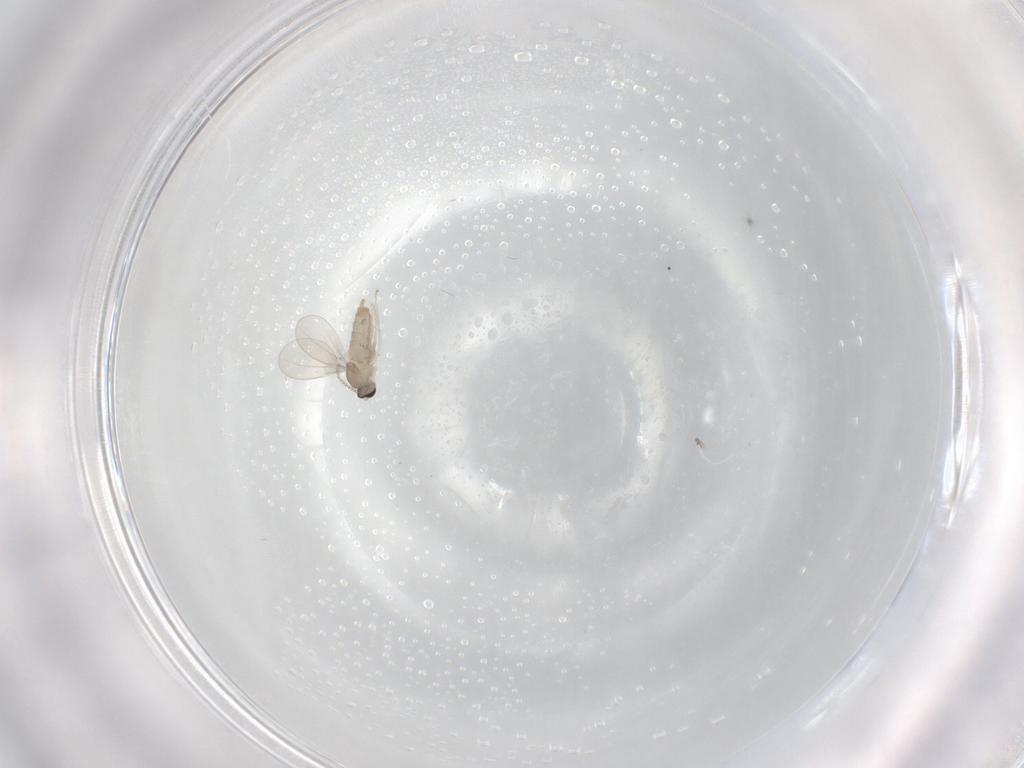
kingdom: Animalia
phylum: Arthropoda
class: Insecta
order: Diptera
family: Cecidomyiidae
